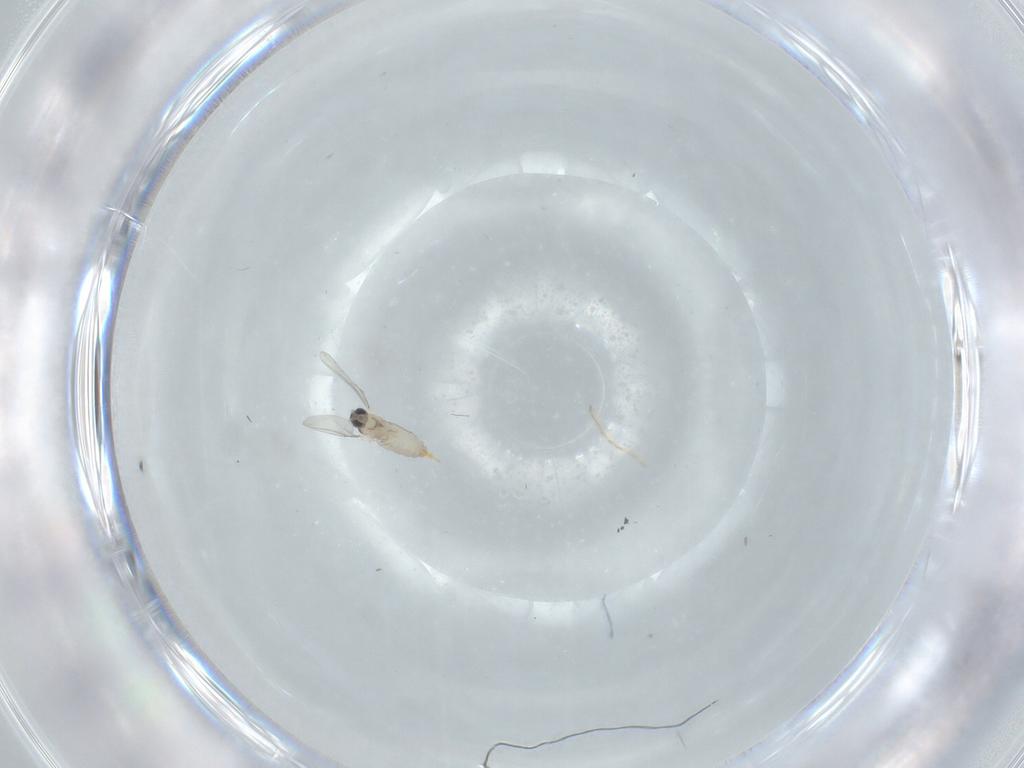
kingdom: Animalia
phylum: Arthropoda
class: Insecta
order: Diptera
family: Cecidomyiidae
